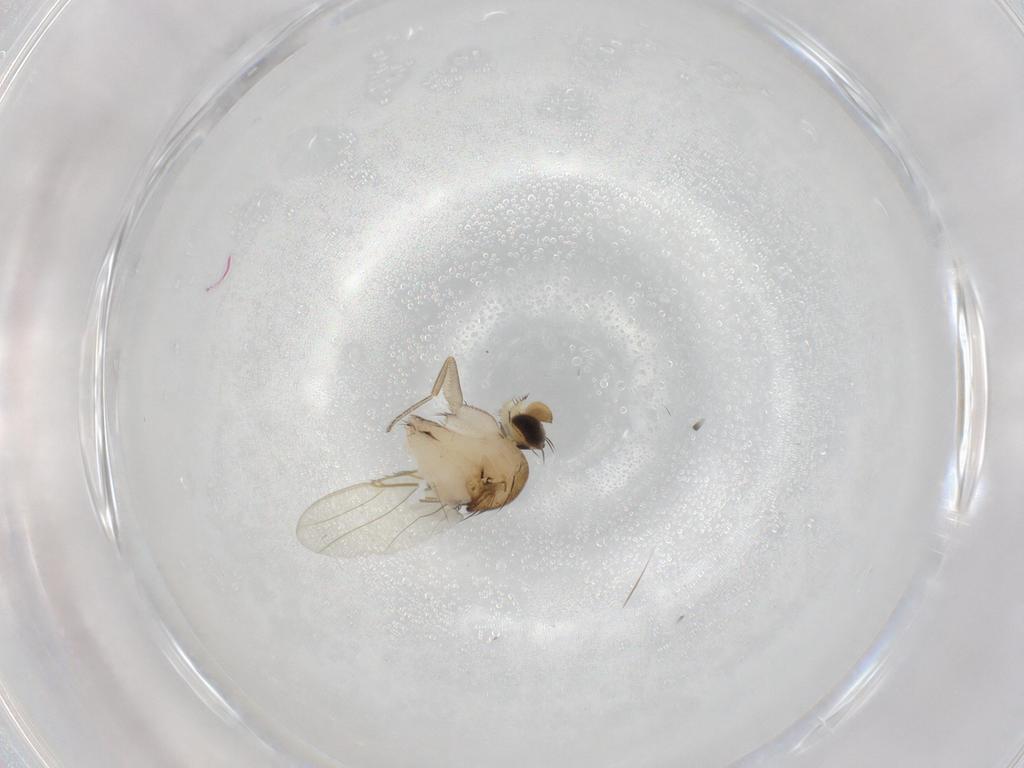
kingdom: Animalia
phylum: Arthropoda
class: Insecta
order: Diptera
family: Phoridae
